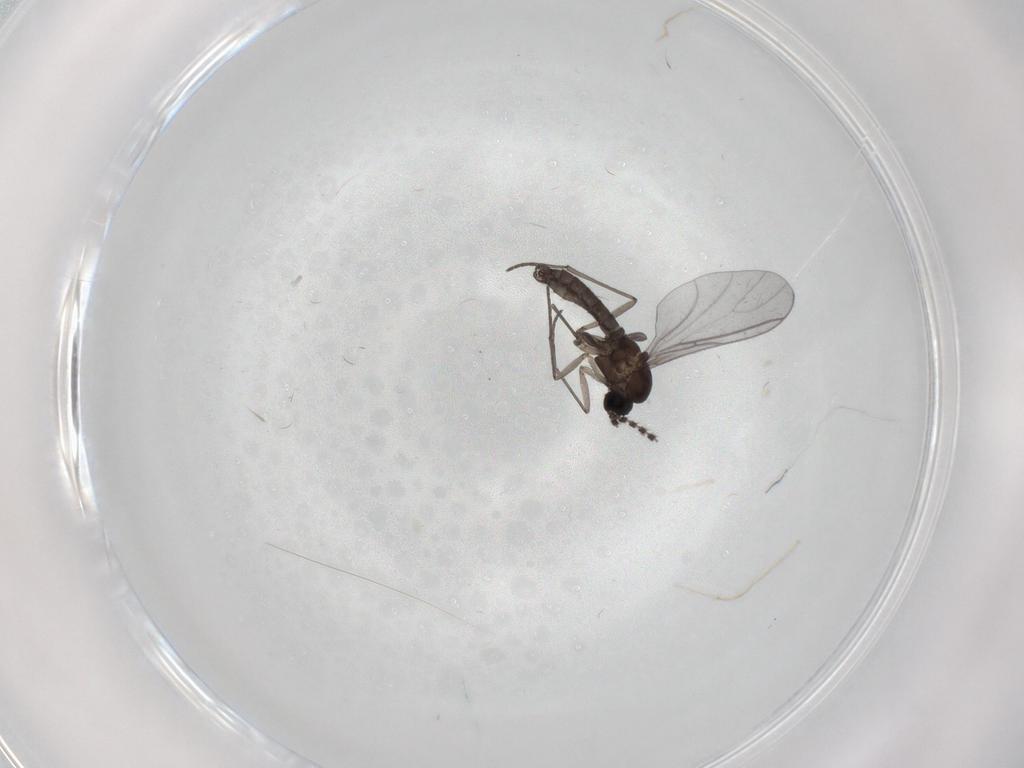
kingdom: Animalia
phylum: Arthropoda
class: Insecta
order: Diptera
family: Sciaridae
